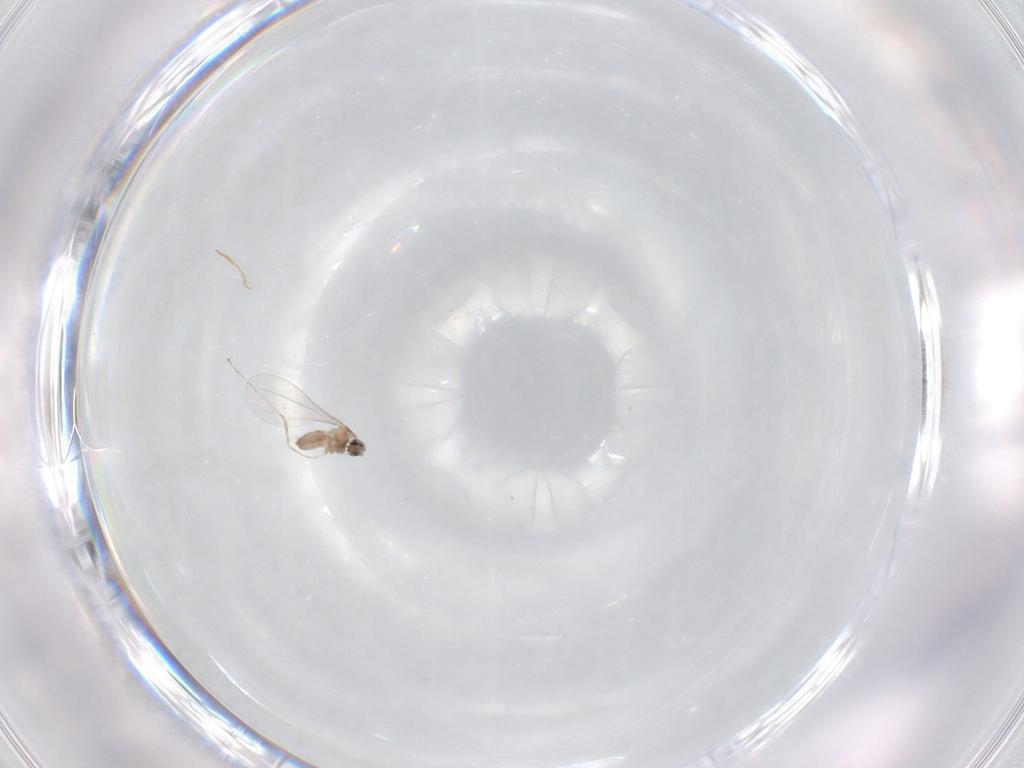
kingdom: Animalia
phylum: Arthropoda
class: Insecta
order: Diptera
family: Cecidomyiidae
